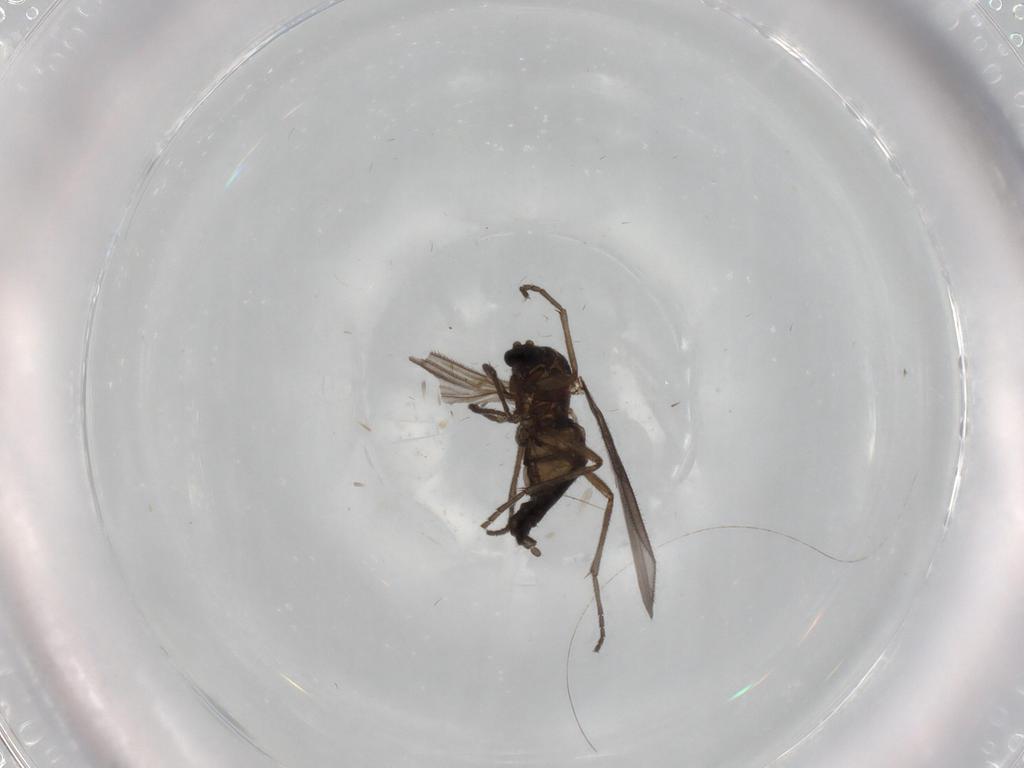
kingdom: Animalia
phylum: Arthropoda
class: Insecta
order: Diptera
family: Sciaridae
